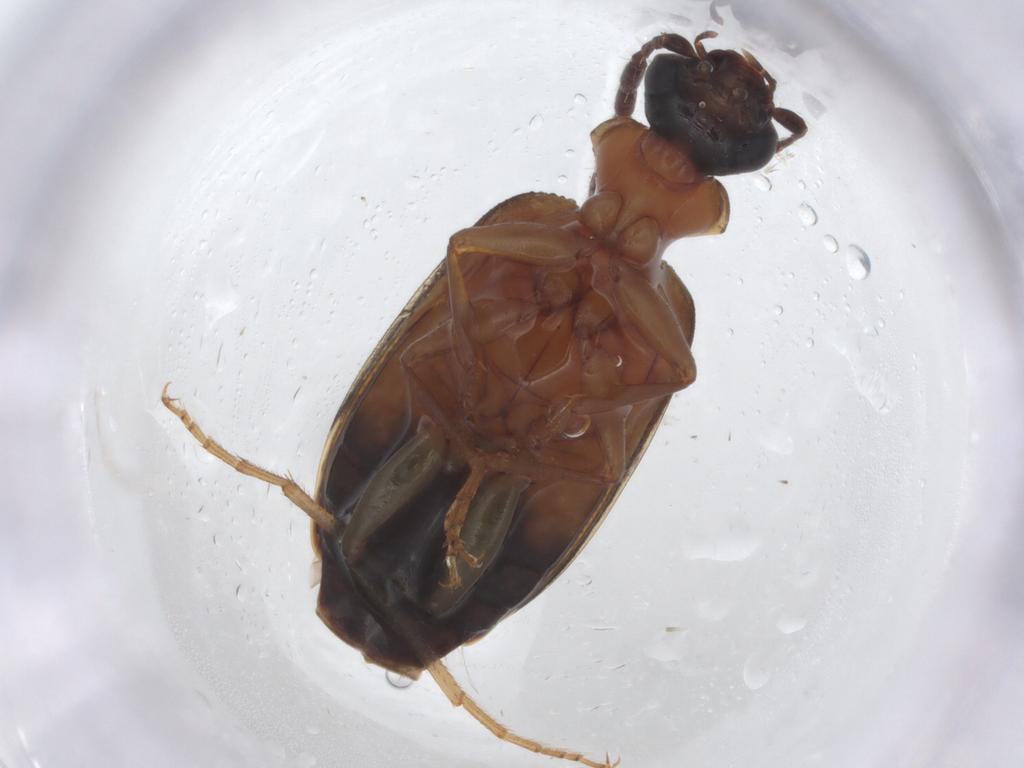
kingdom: Animalia
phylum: Arthropoda
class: Insecta
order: Coleoptera
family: Carabidae
